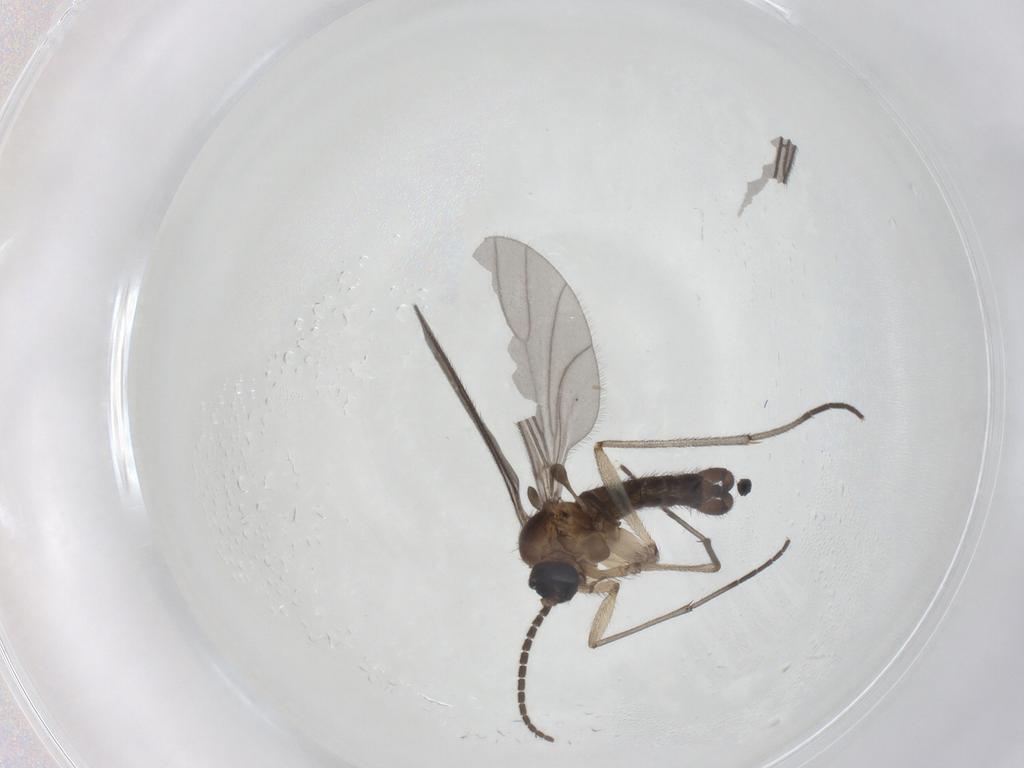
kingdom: Animalia
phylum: Arthropoda
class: Insecta
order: Diptera
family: Sciaridae
